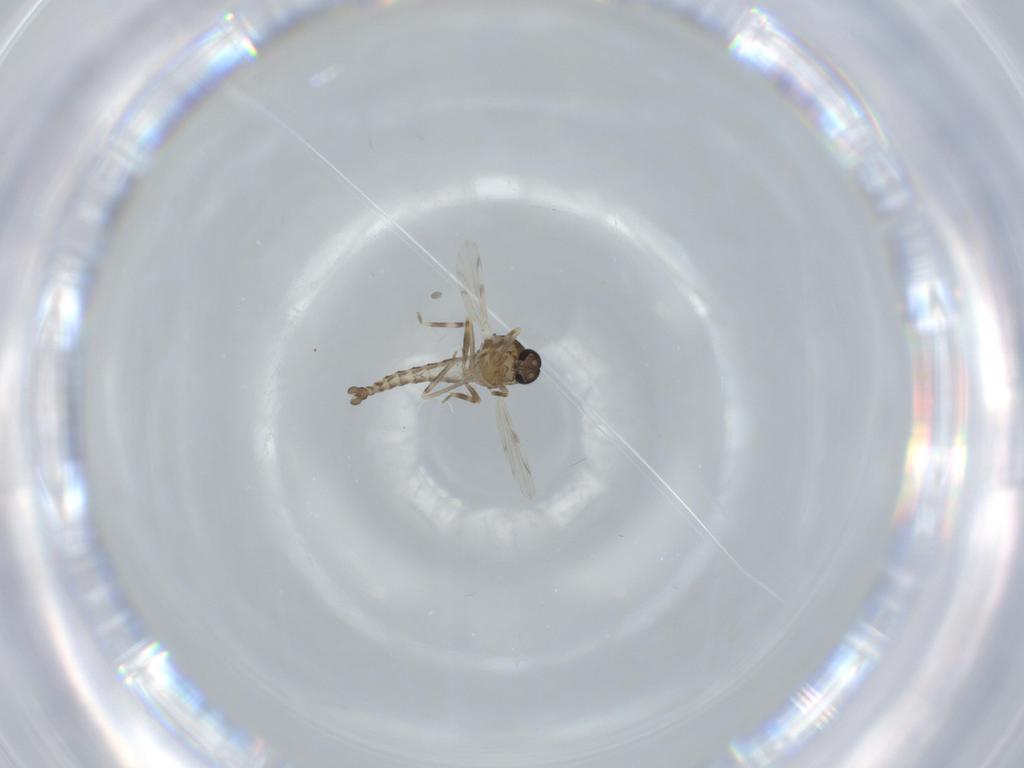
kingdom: Animalia
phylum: Arthropoda
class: Insecta
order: Diptera
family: Ceratopogonidae
